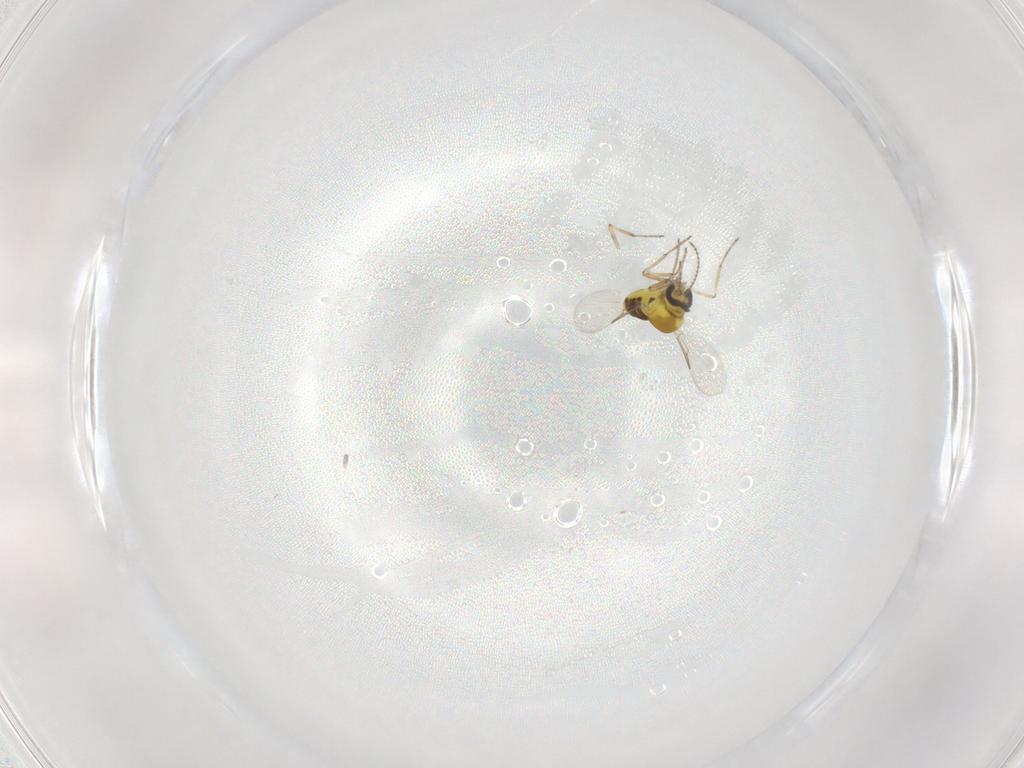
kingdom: Animalia
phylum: Arthropoda
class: Insecta
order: Diptera
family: Ceratopogonidae
